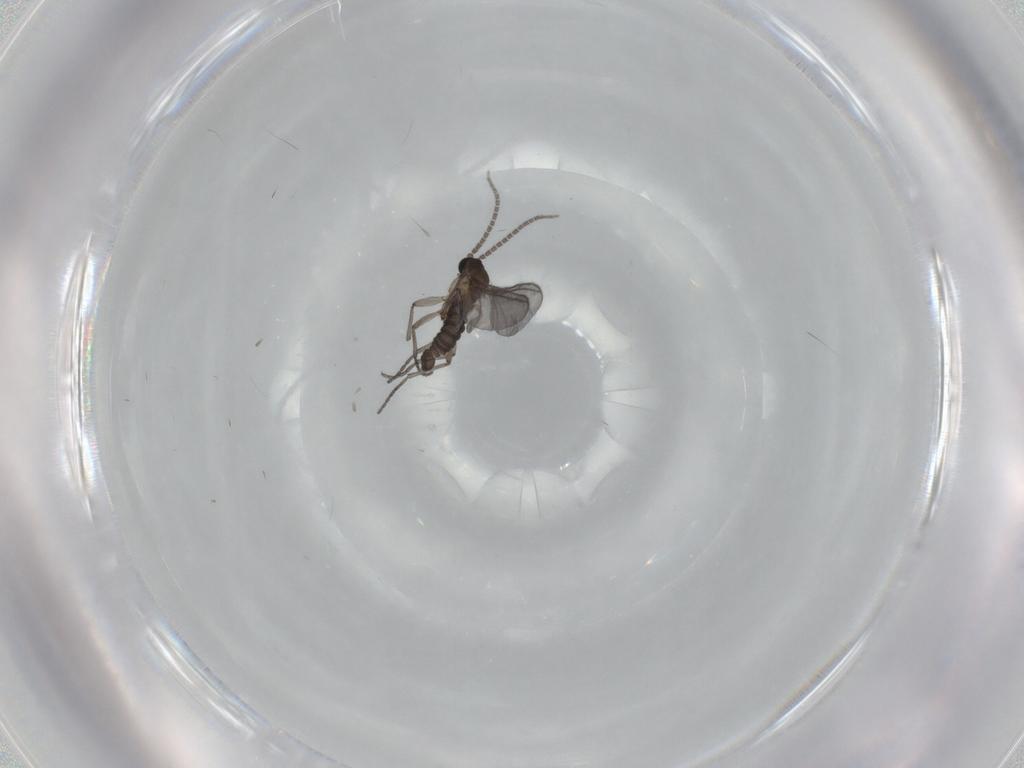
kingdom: Animalia
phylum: Arthropoda
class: Insecta
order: Diptera
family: Sciaridae
